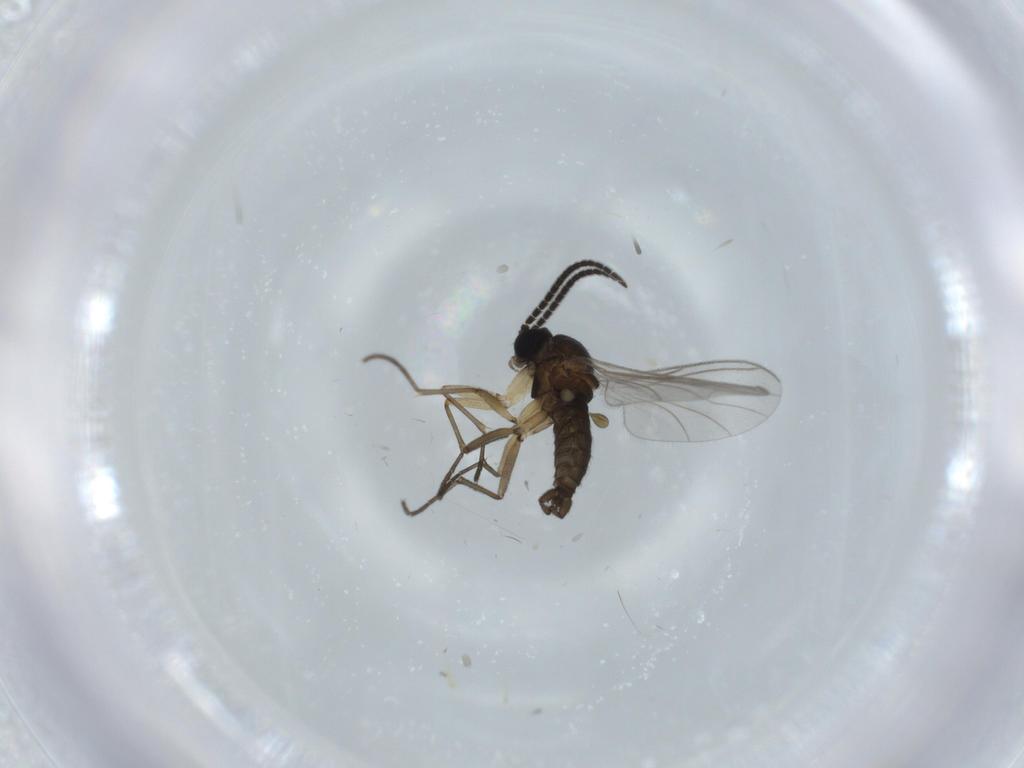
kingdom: Animalia
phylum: Arthropoda
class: Insecta
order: Diptera
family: Sciaridae
